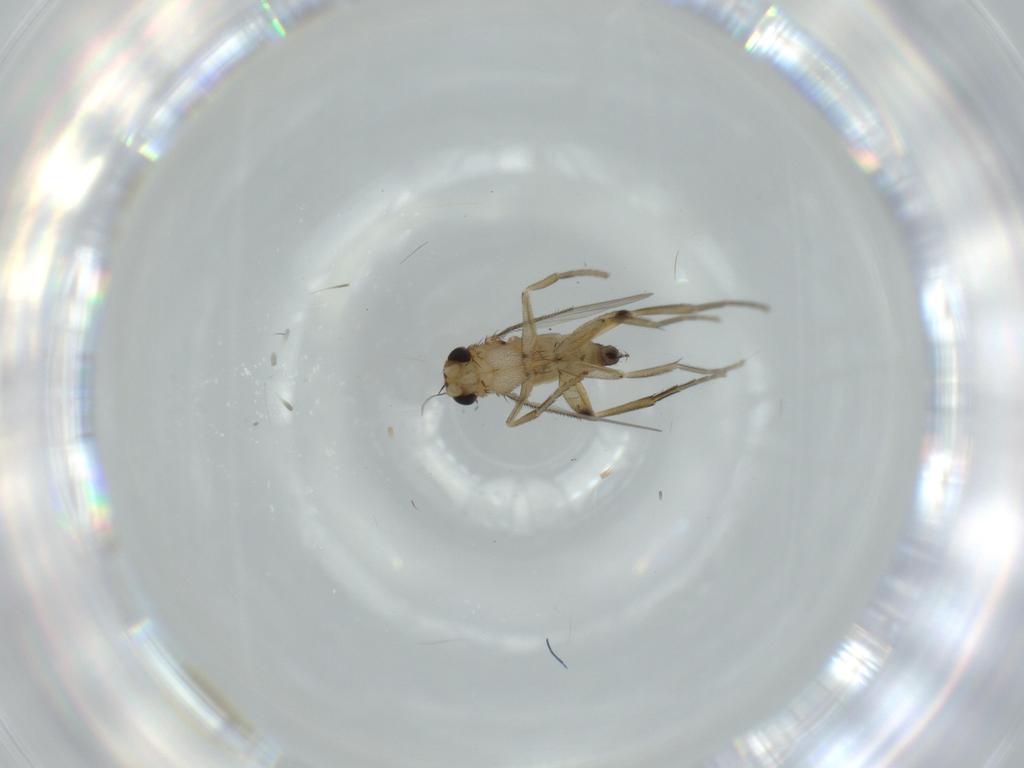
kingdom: Animalia
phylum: Arthropoda
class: Insecta
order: Diptera
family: Phoridae
